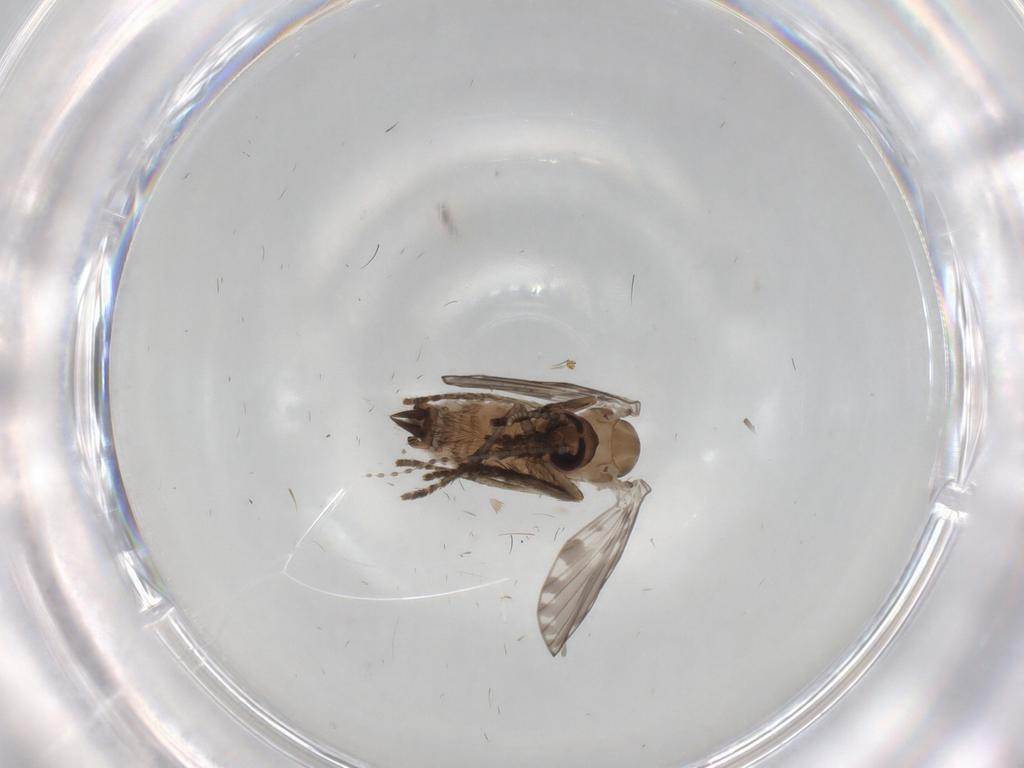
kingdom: Animalia
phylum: Arthropoda
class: Insecta
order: Diptera
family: Psychodidae
